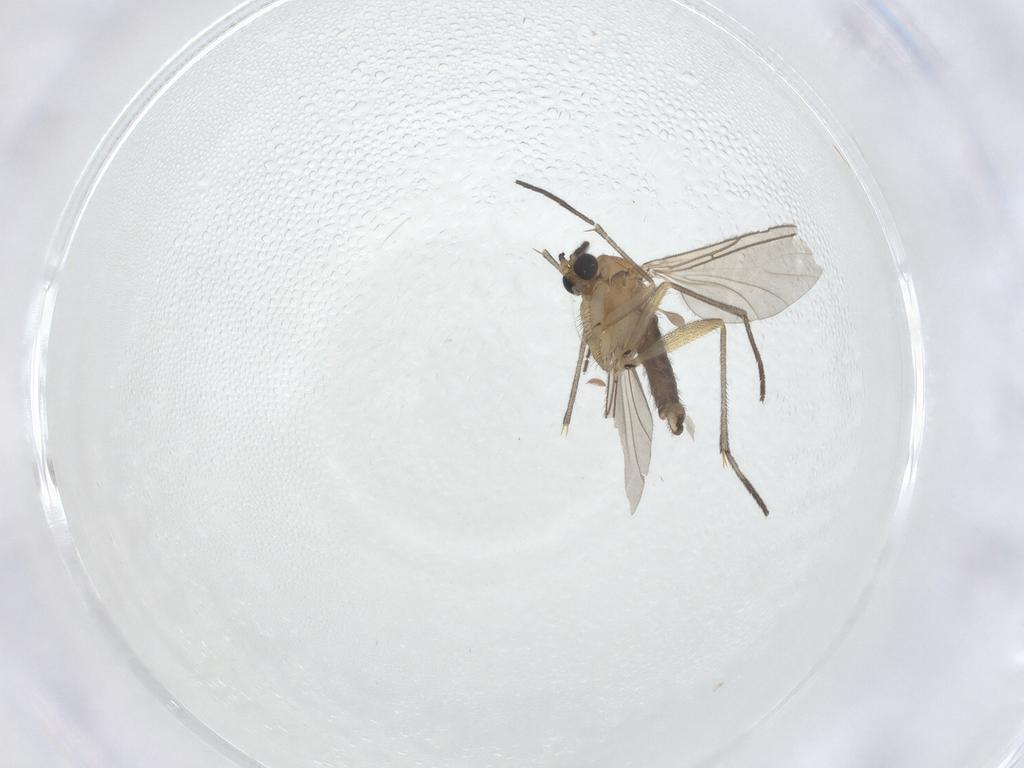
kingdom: Animalia
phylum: Arthropoda
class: Insecta
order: Diptera
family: Sciaridae
